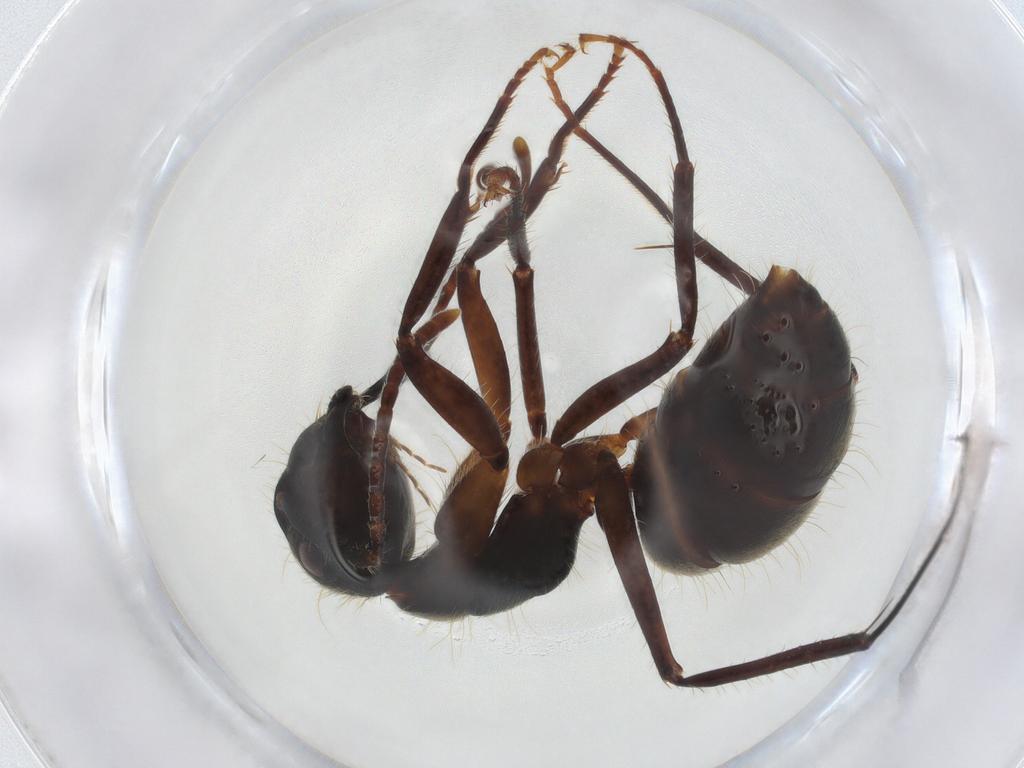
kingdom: Animalia
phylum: Arthropoda
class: Insecta
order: Hymenoptera
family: Formicidae
